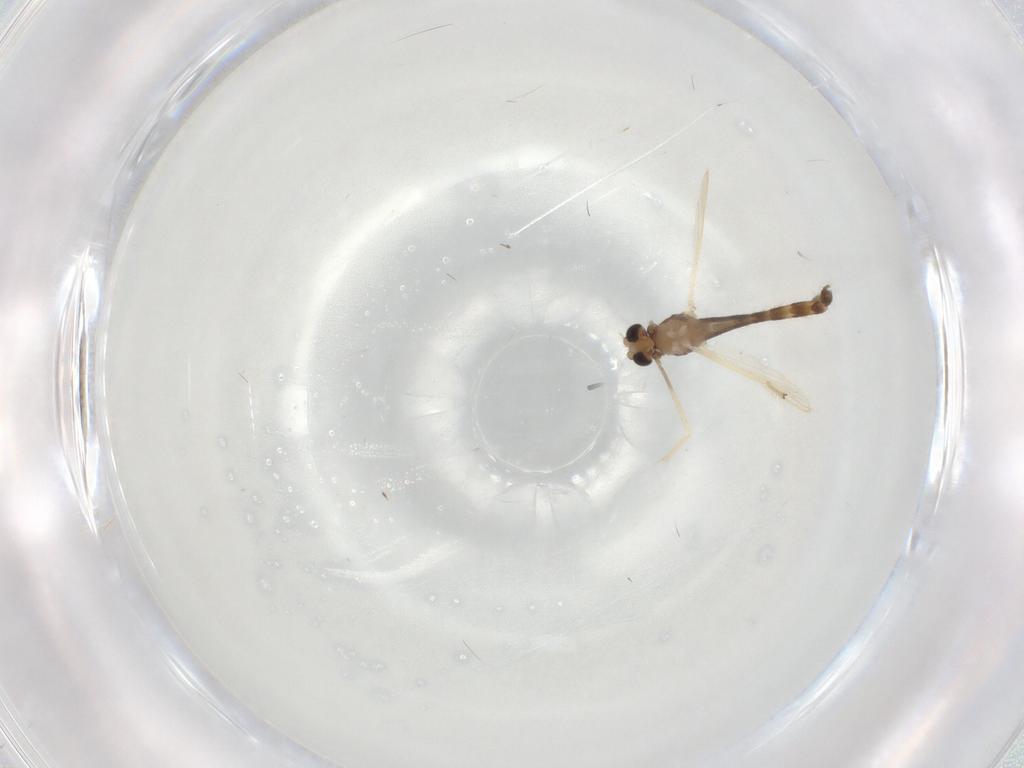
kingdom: Animalia
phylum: Arthropoda
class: Insecta
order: Diptera
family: Chironomidae
